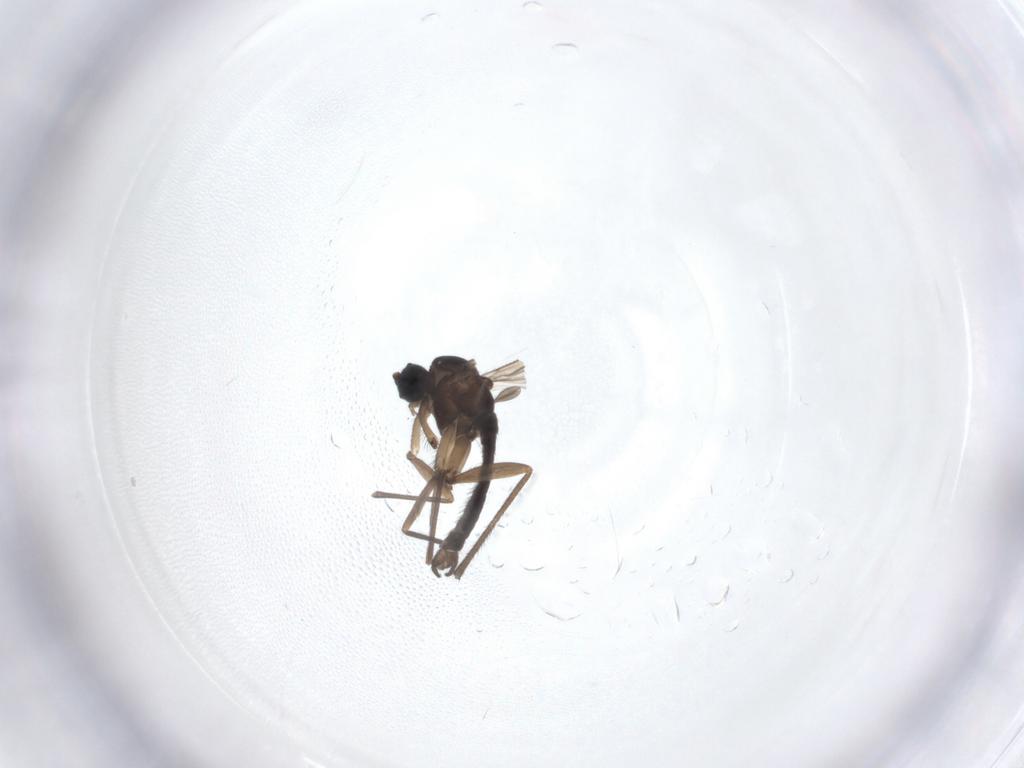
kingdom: Animalia
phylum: Arthropoda
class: Insecta
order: Diptera
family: Sciaridae
